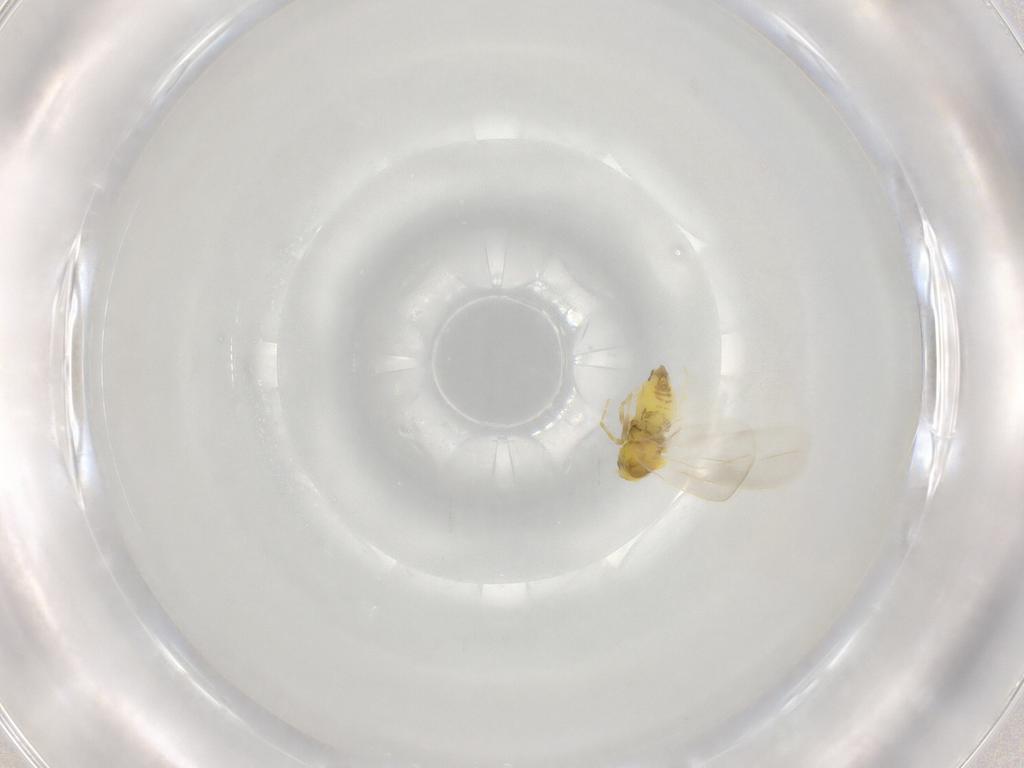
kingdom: Animalia
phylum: Arthropoda
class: Insecta
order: Hemiptera
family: Aleyrodidae
